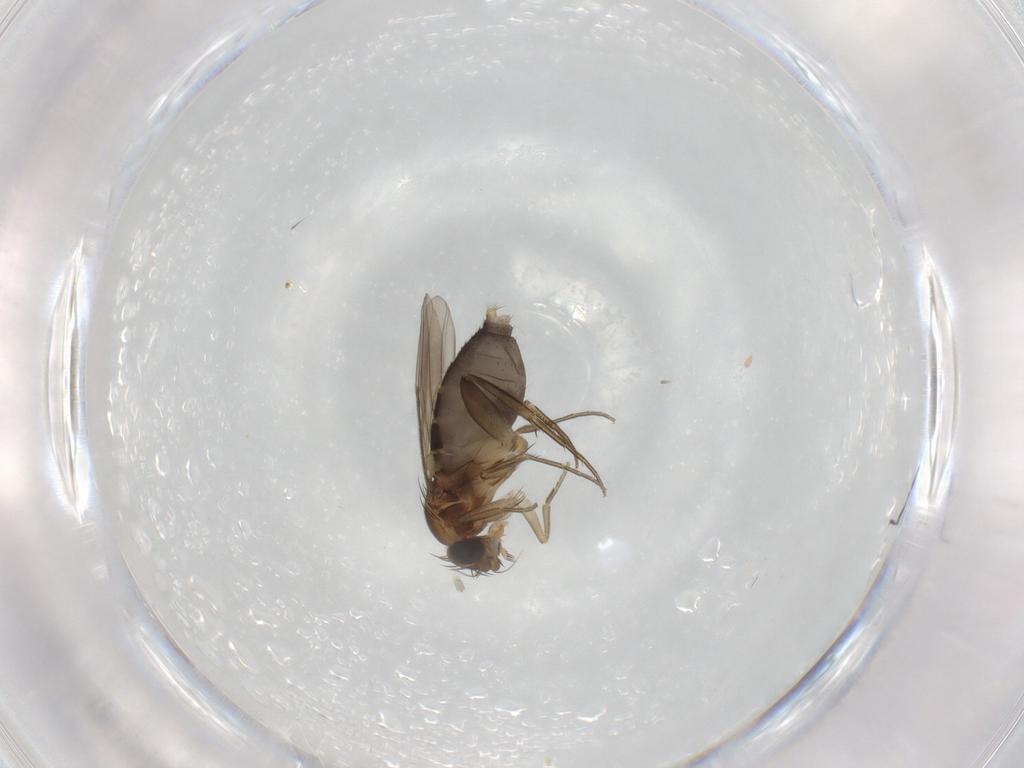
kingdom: Animalia
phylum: Arthropoda
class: Insecta
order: Diptera
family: Phoridae
